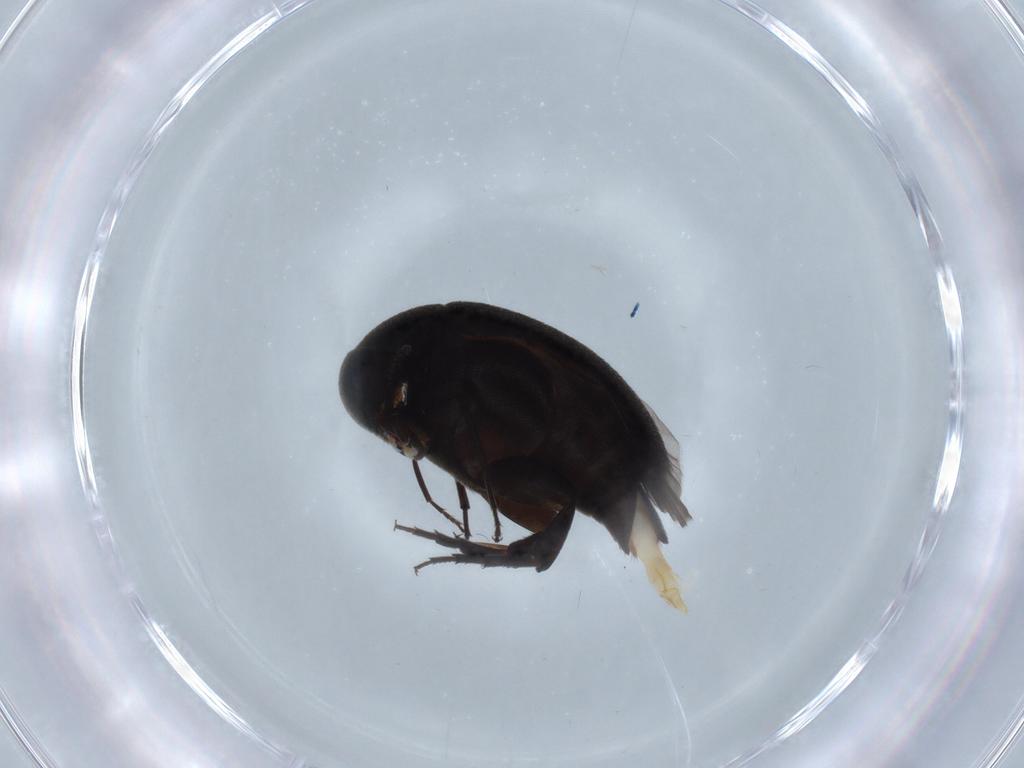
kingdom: Animalia
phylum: Arthropoda
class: Insecta
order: Coleoptera
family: Mordellidae
